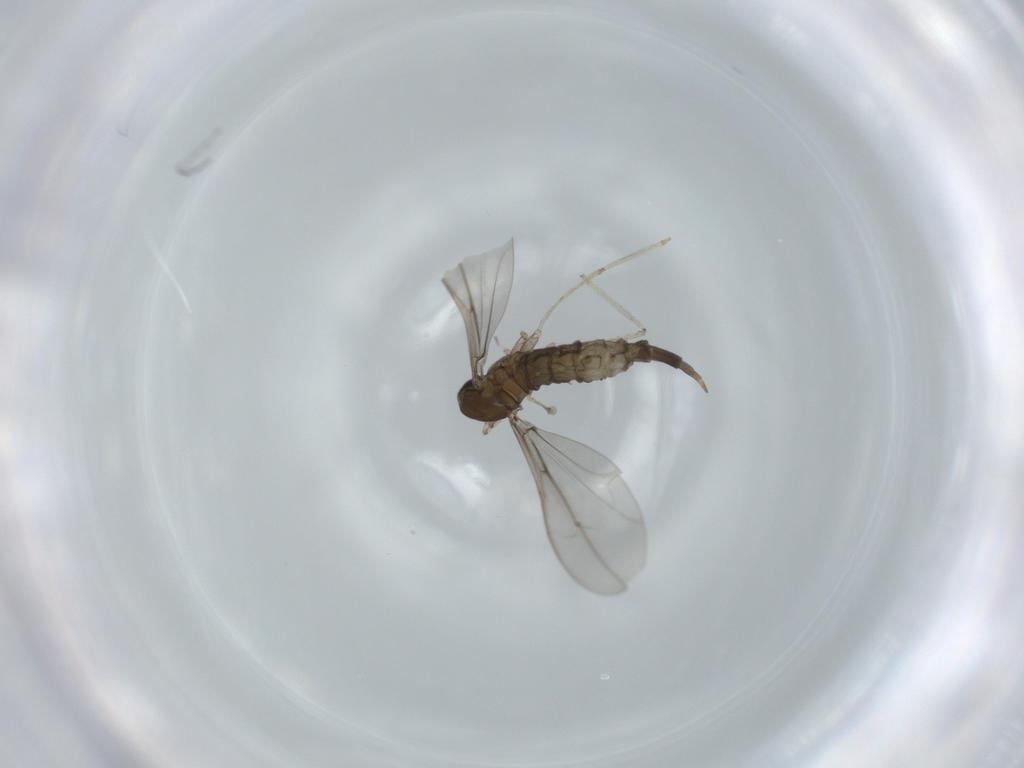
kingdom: Animalia
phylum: Arthropoda
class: Insecta
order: Diptera
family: Cecidomyiidae
